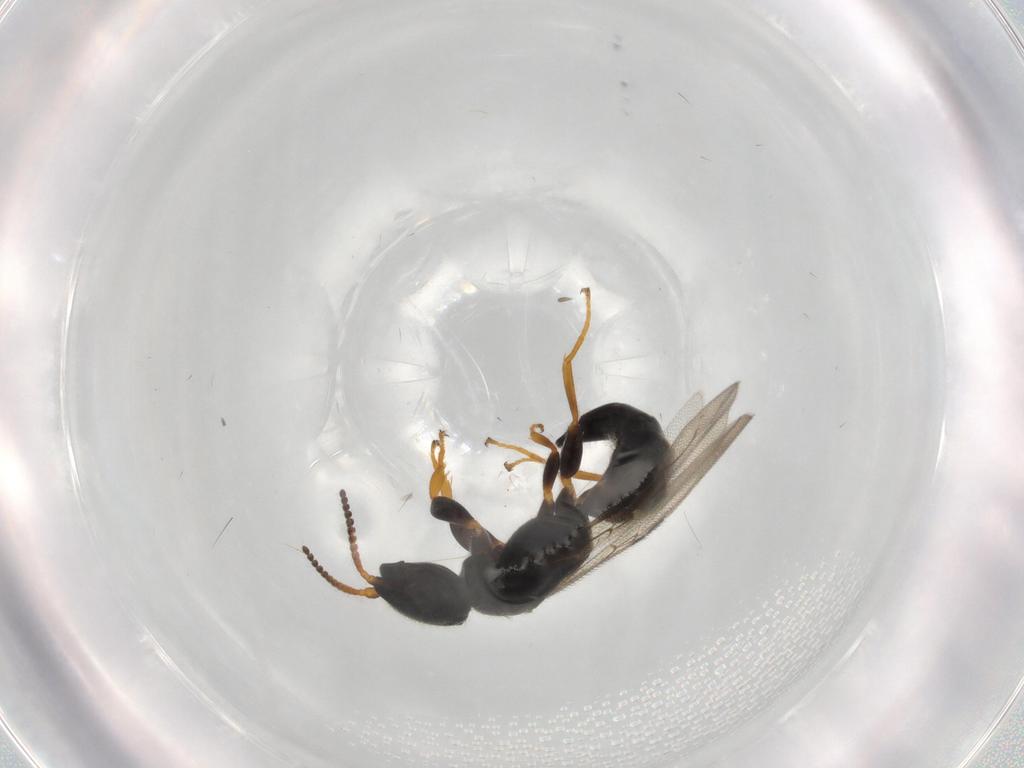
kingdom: Animalia
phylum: Arthropoda
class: Insecta
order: Hymenoptera
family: Bethylidae
